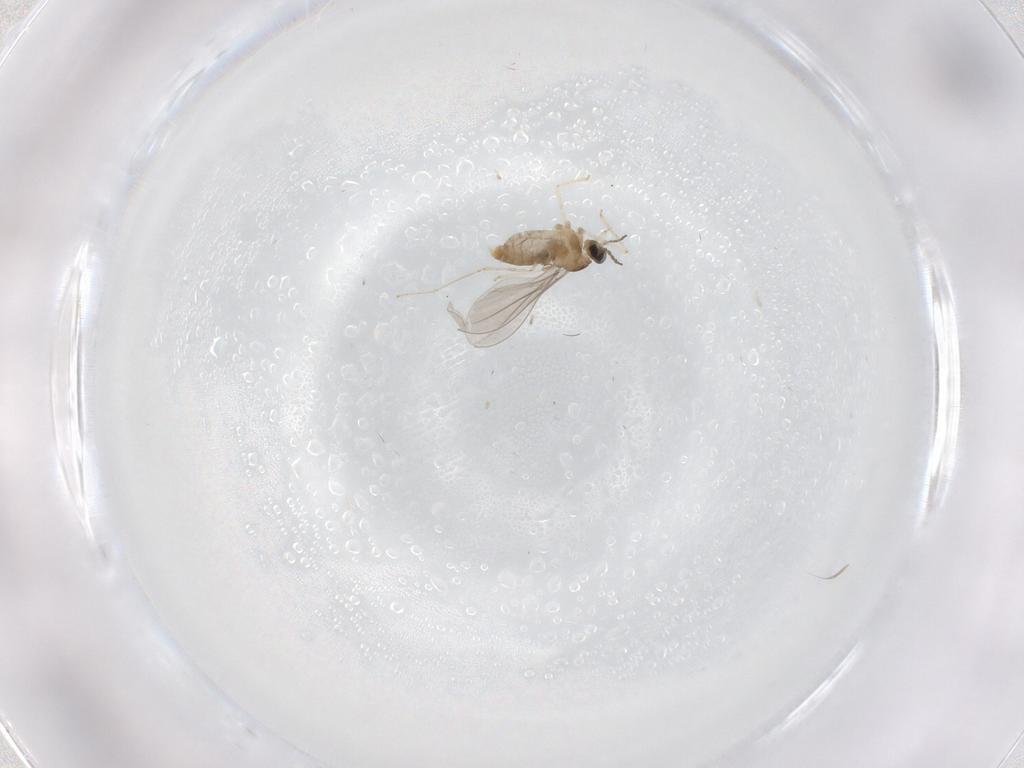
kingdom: Animalia
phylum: Arthropoda
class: Insecta
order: Diptera
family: Cecidomyiidae
